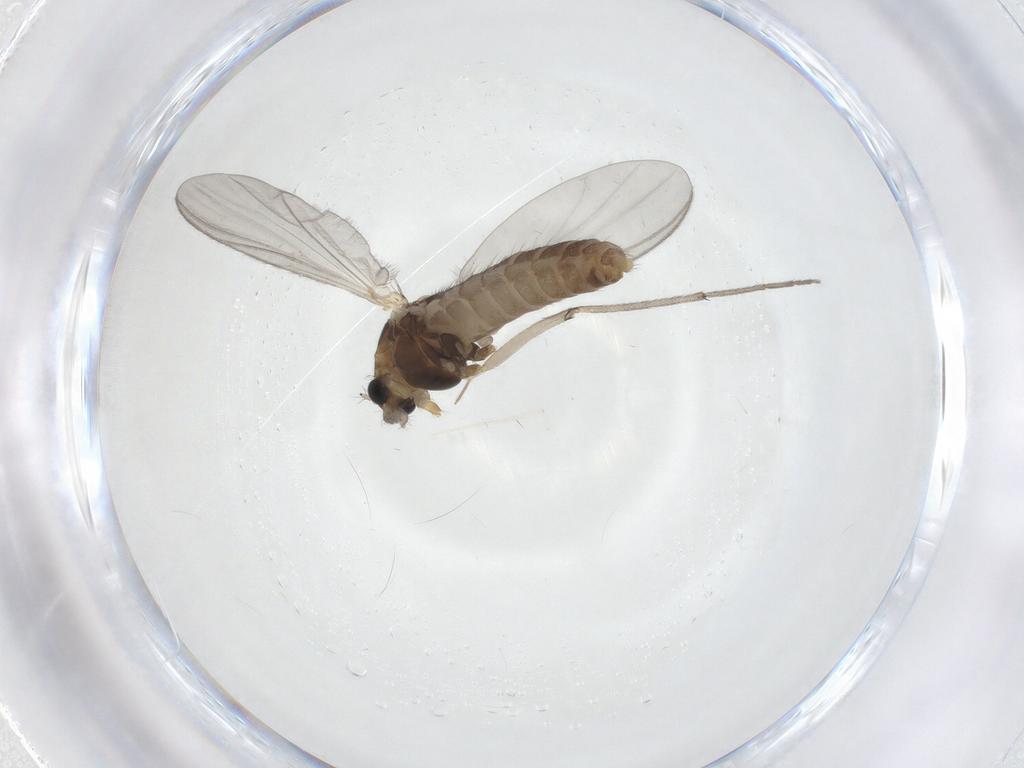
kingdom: Animalia
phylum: Arthropoda
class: Insecta
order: Diptera
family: Chironomidae
